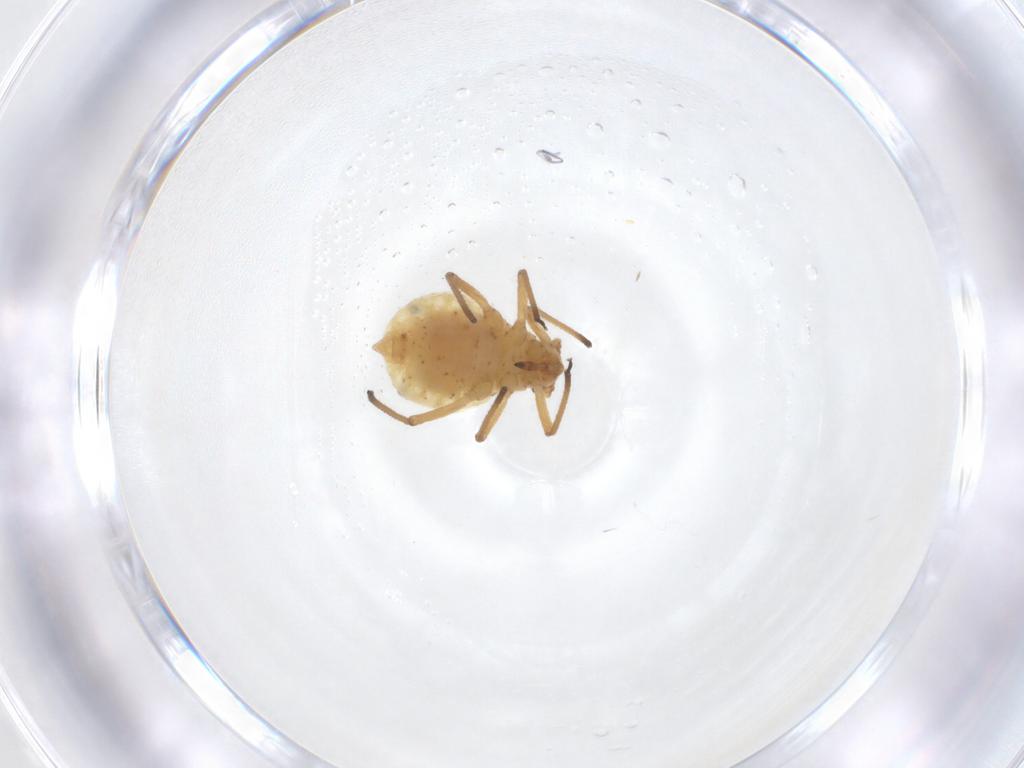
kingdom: Animalia
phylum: Arthropoda
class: Insecta
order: Hemiptera
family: Aphididae
